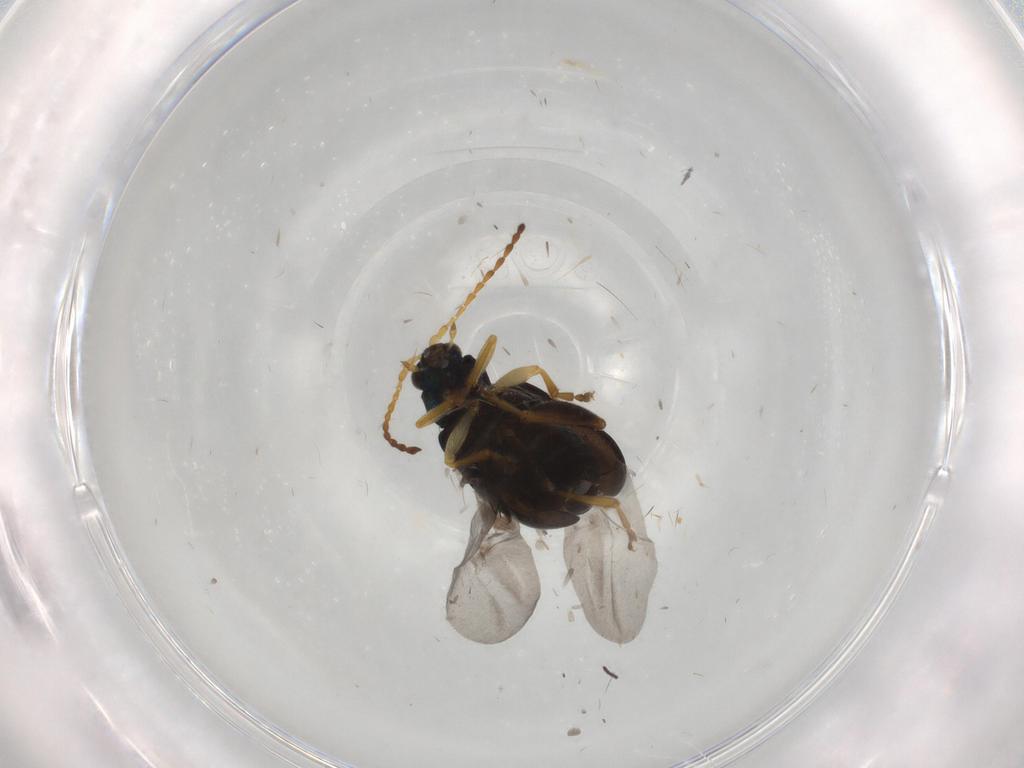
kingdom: Animalia
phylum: Arthropoda
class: Insecta
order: Coleoptera
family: Chrysomelidae
